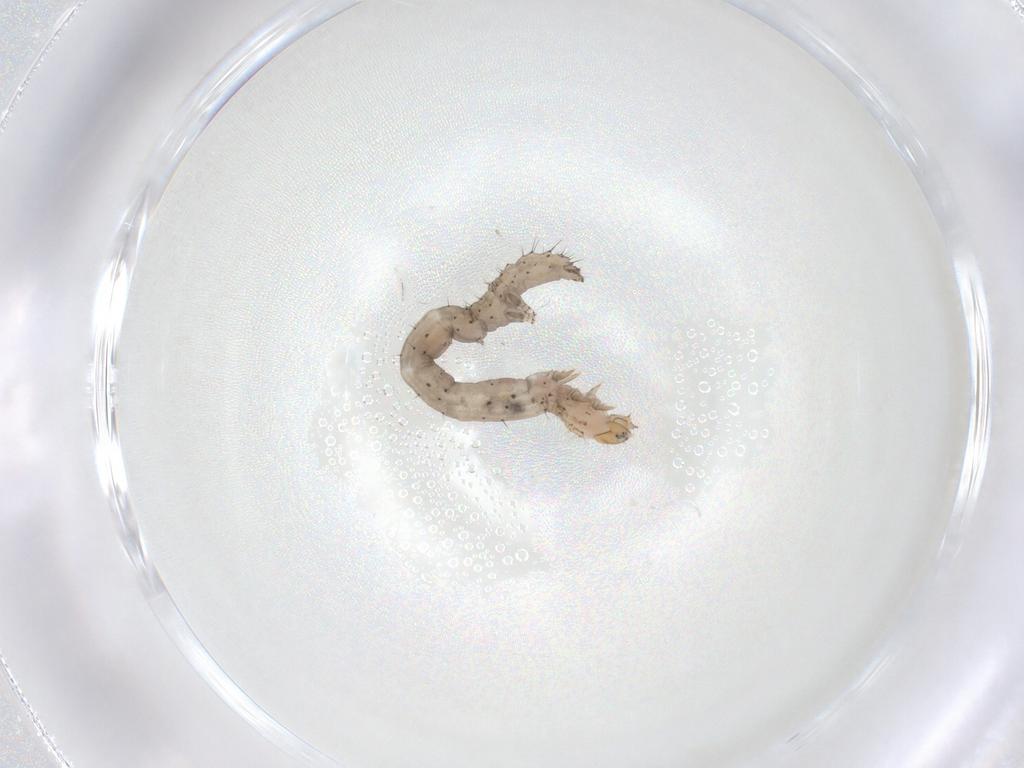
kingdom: Animalia
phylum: Arthropoda
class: Insecta
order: Lepidoptera
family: Erebidae
